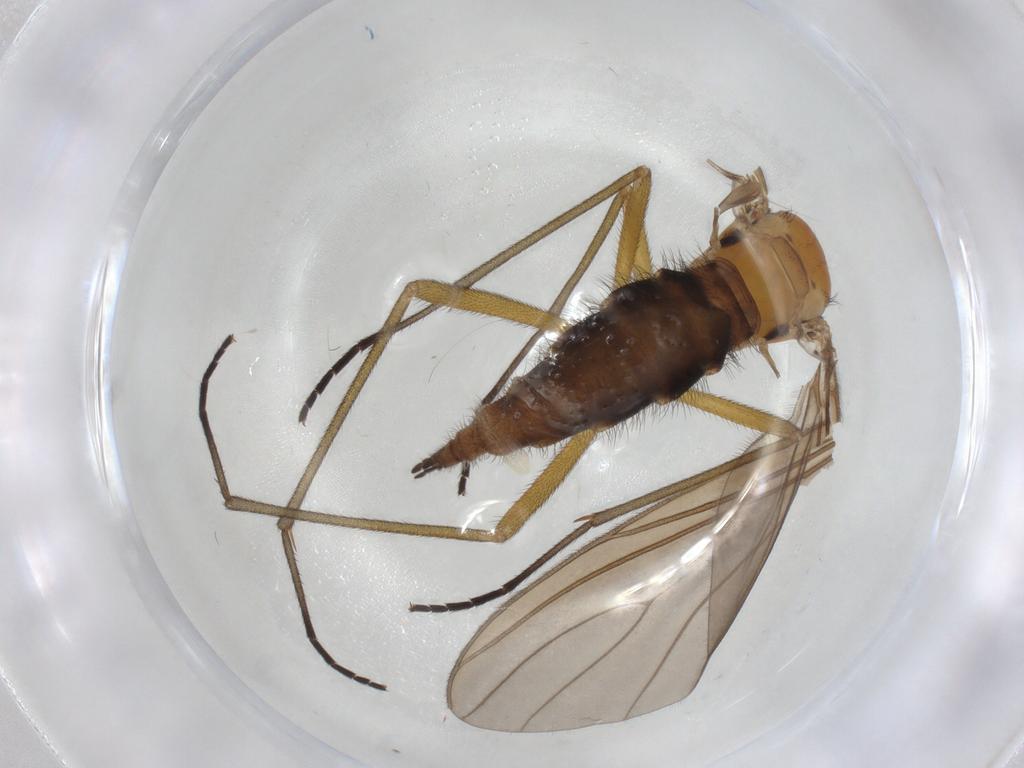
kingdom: Animalia
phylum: Arthropoda
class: Insecta
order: Diptera
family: Sciaridae
